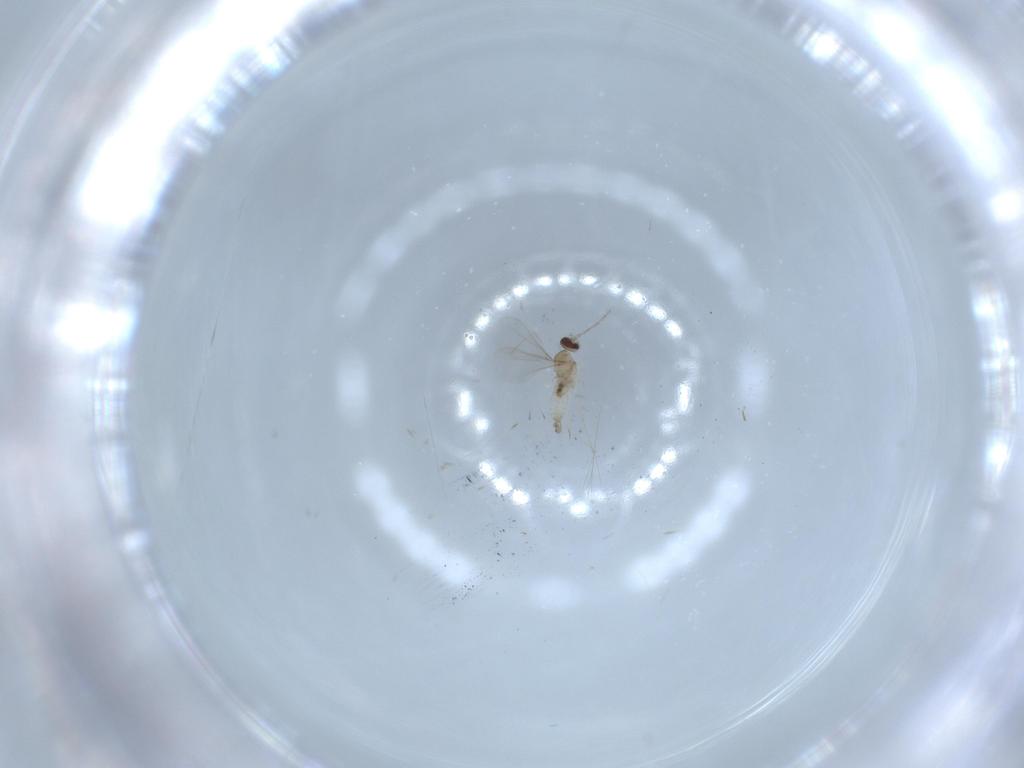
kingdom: Animalia
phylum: Arthropoda
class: Insecta
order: Diptera
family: Cecidomyiidae
